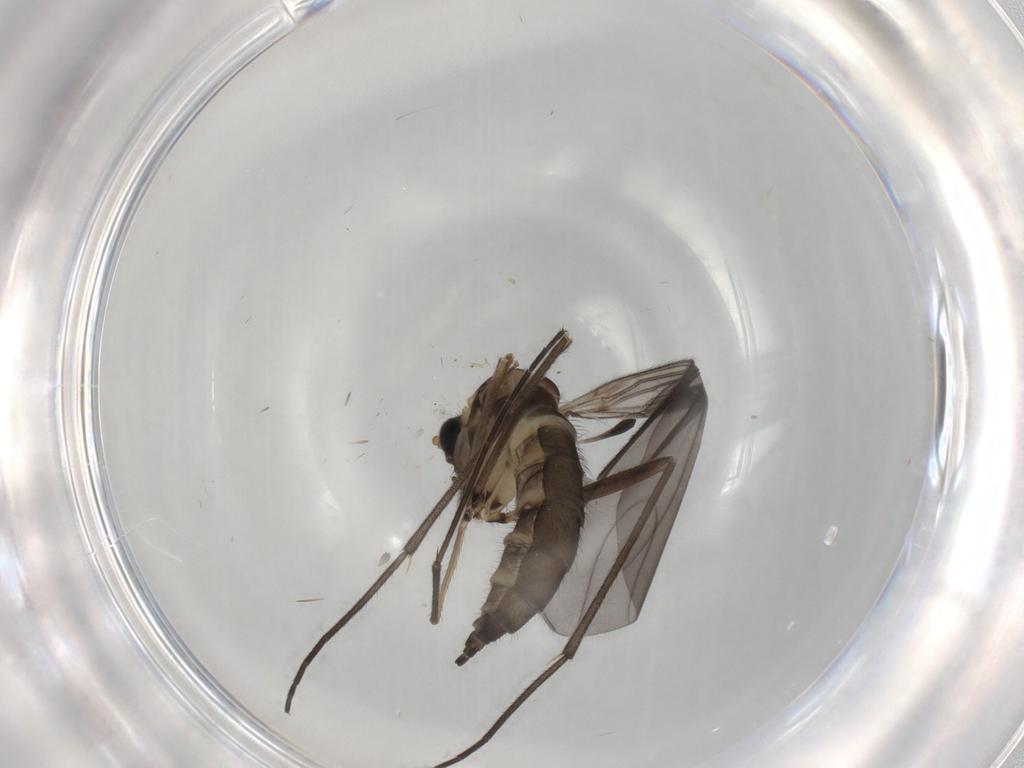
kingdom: Animalia
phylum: Arthropoda
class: Insecta
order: Diptera
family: Sciaridae
